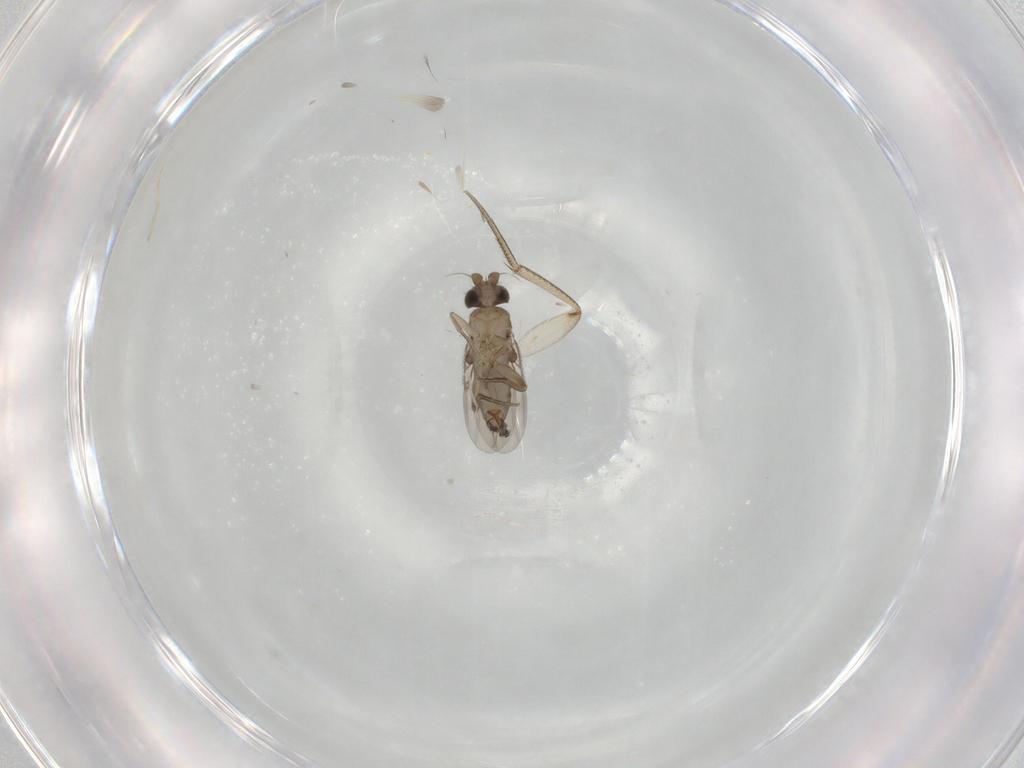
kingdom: Animalia
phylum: Arthropoda
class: Insecta
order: Diptera
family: Phoridae
